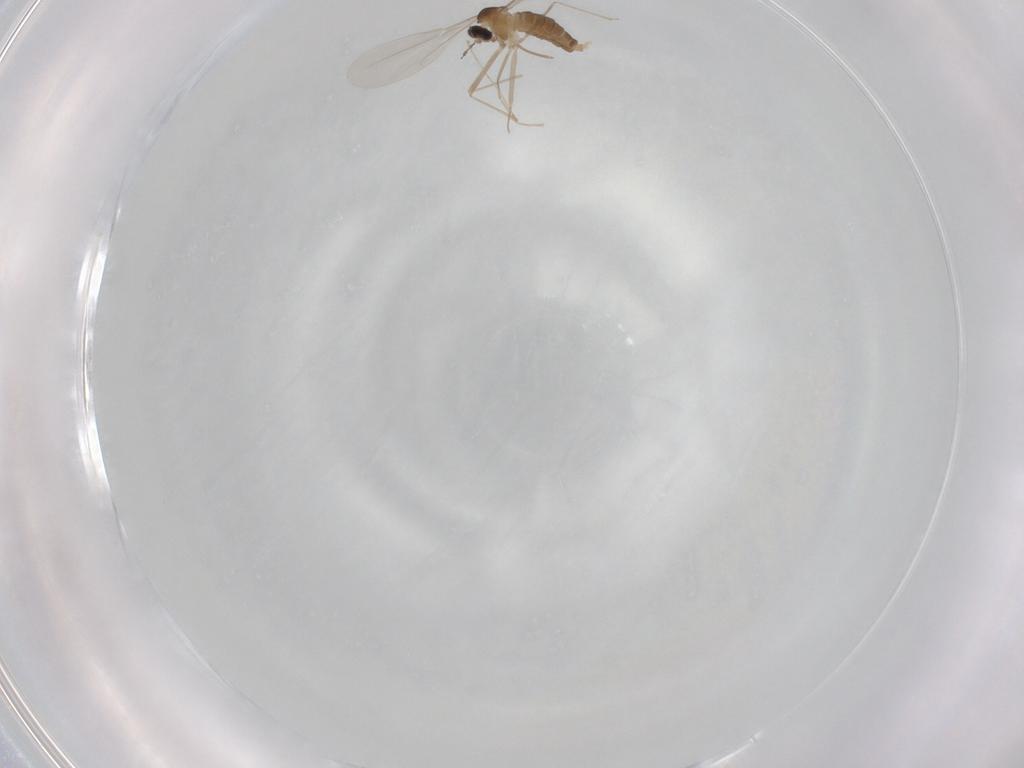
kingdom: Animalia
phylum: Arthropoda
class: Insecta
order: Diptera
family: Cecidomyiidae
